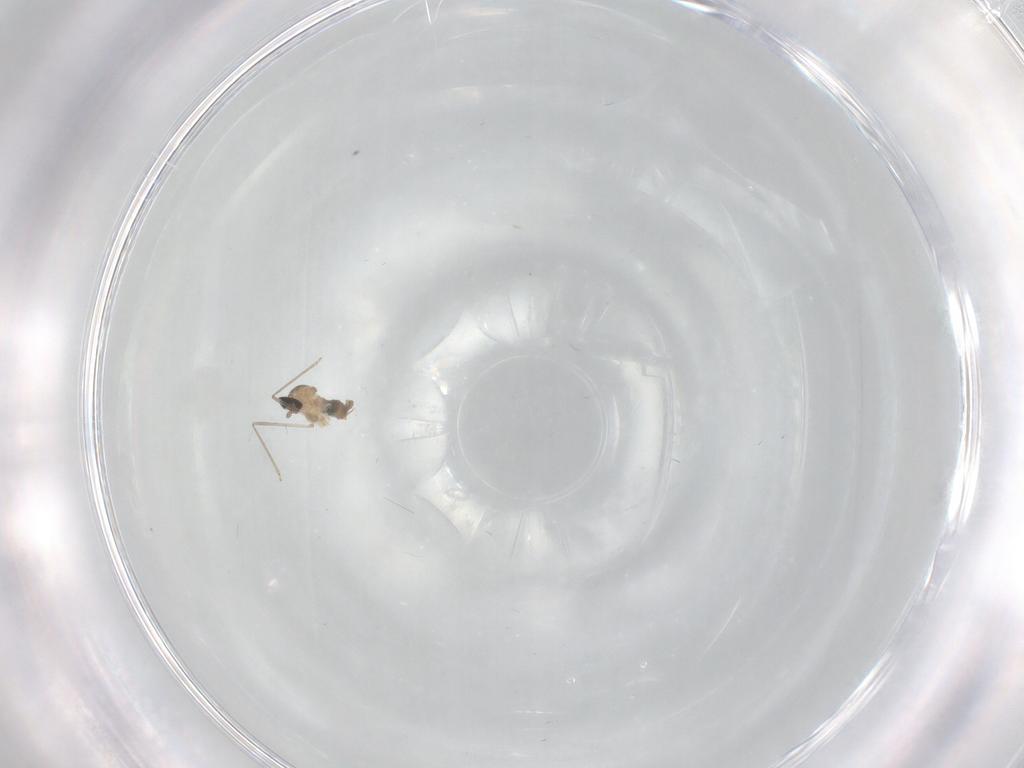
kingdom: Animalia
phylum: Arthropoda
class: Insecta
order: Diptera
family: Cecidomyiidae
